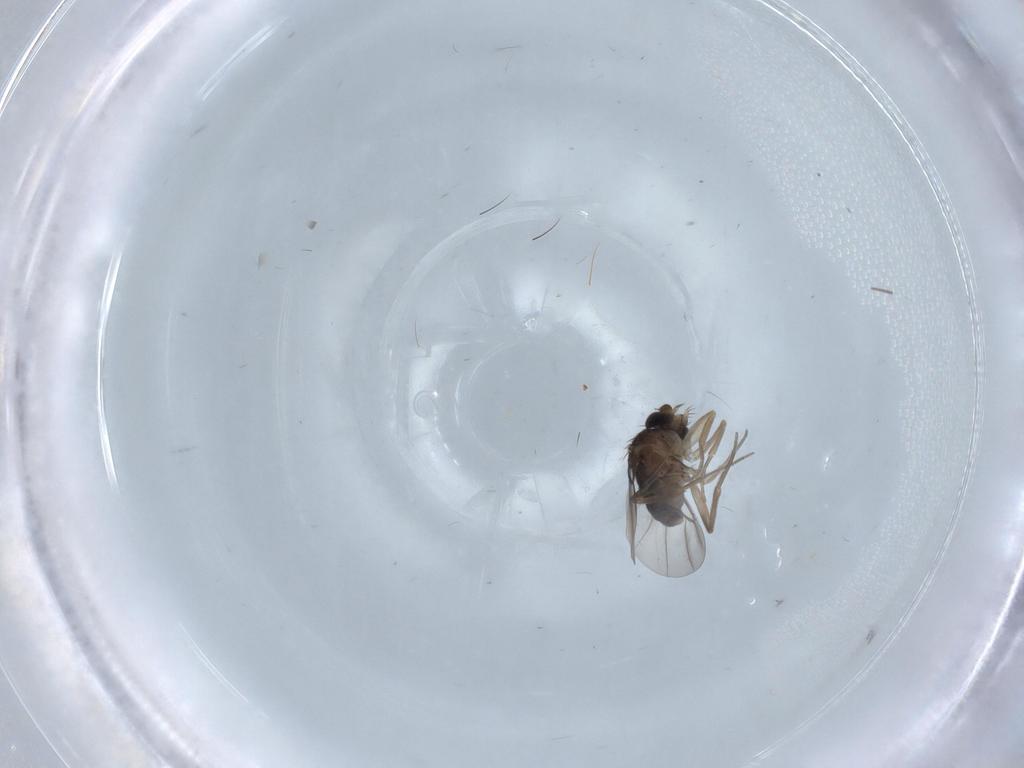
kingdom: Animalia
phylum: Arthropoda
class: Insecta
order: Diptera
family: Phoridae
